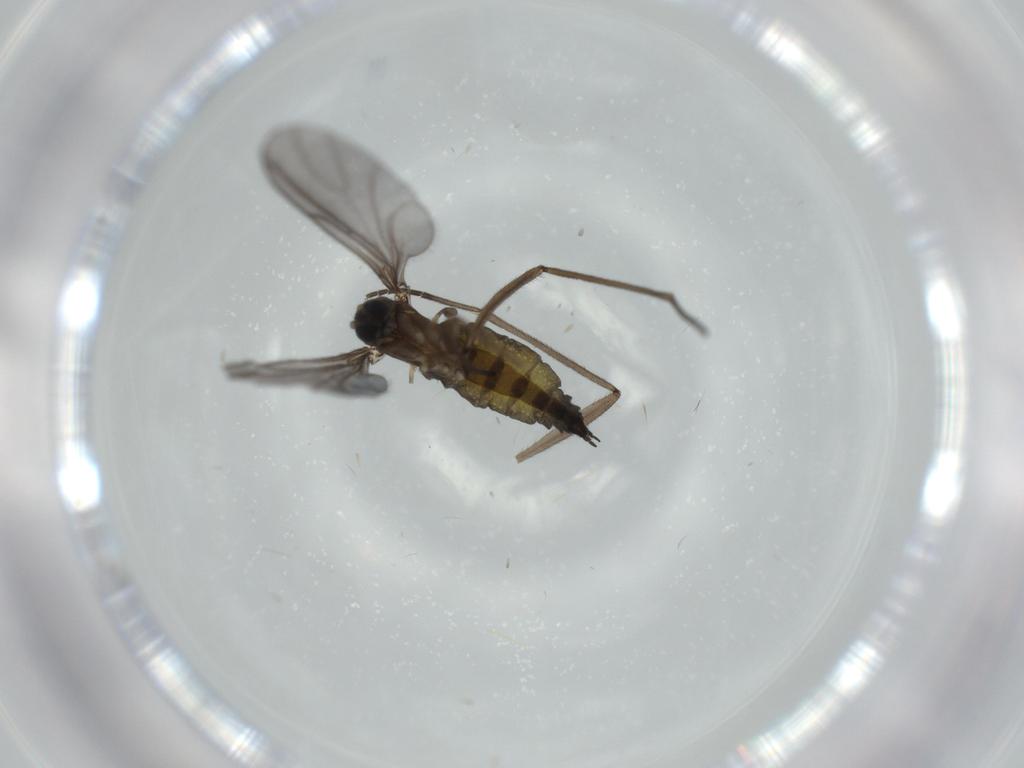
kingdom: Animalia
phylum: Arthropoda
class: Insecta
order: Diptera
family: Sciaridae
